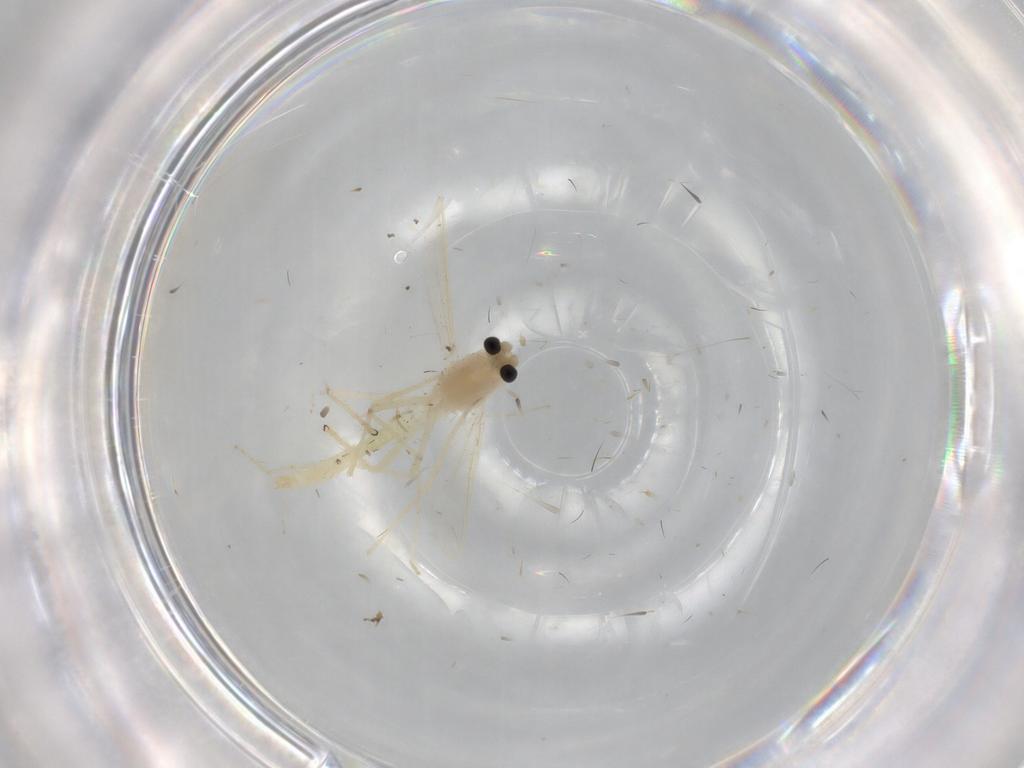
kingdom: Animalia
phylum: Arthropoda
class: Insecta
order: Diptera
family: Chironomidae
